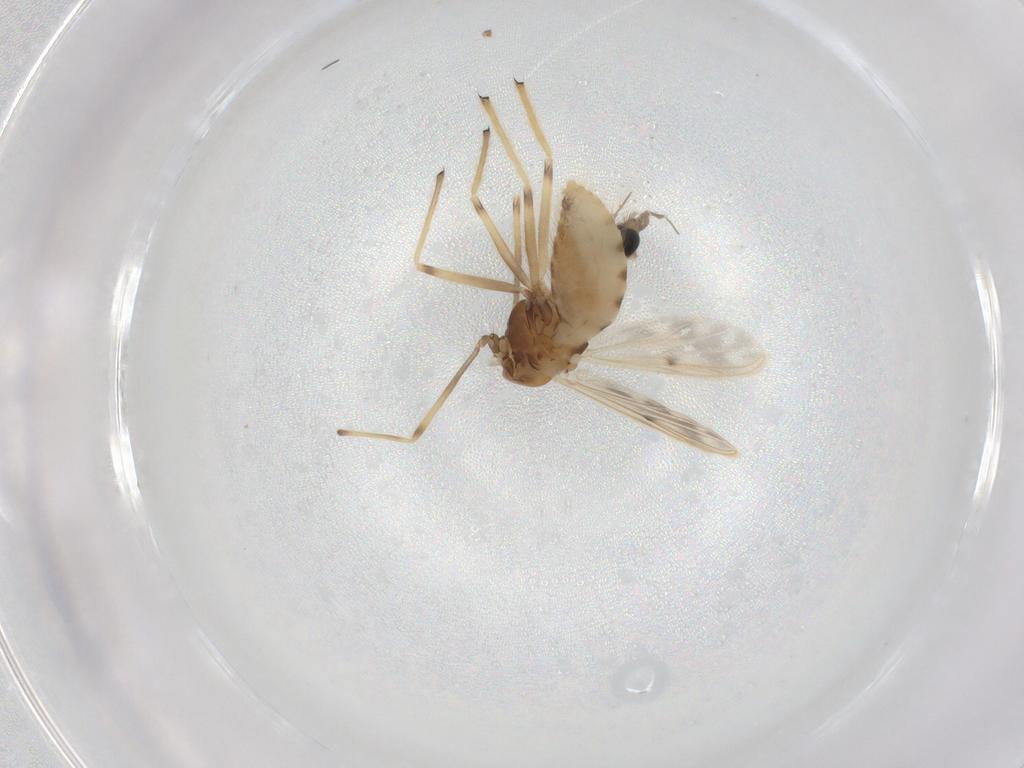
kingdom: Animalia
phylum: Arthropoda
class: Insecta
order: Diptera
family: Chironomidae
